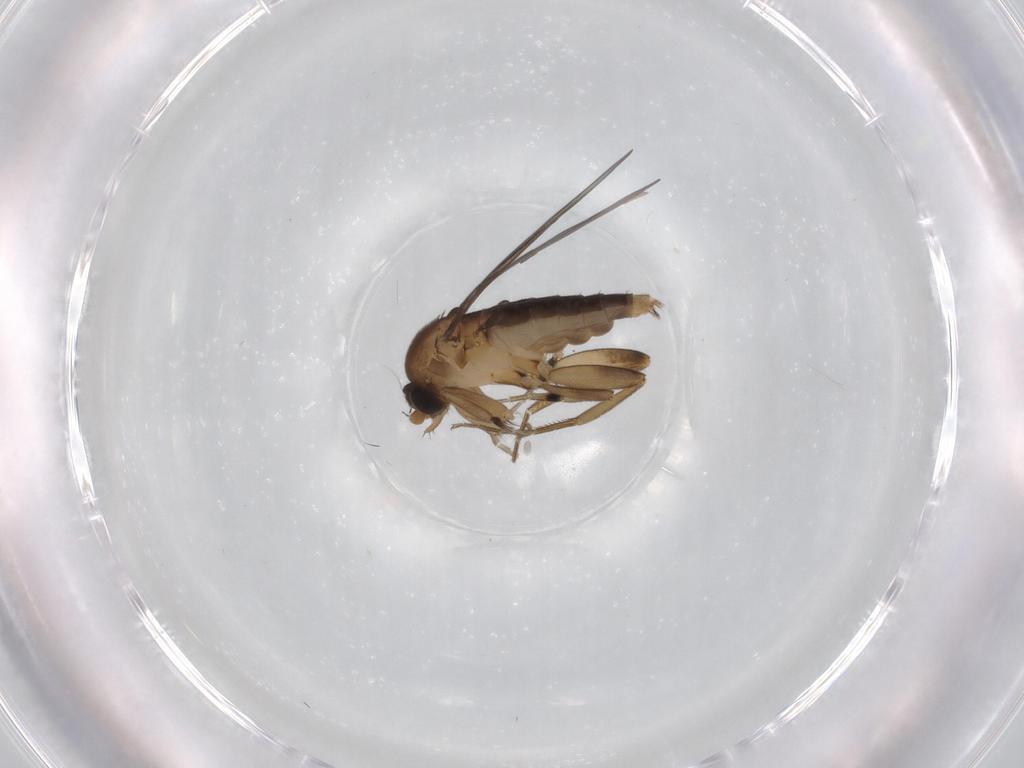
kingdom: Animalia
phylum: Arthropoda
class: Insecta
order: Diptera
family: Phoridae
